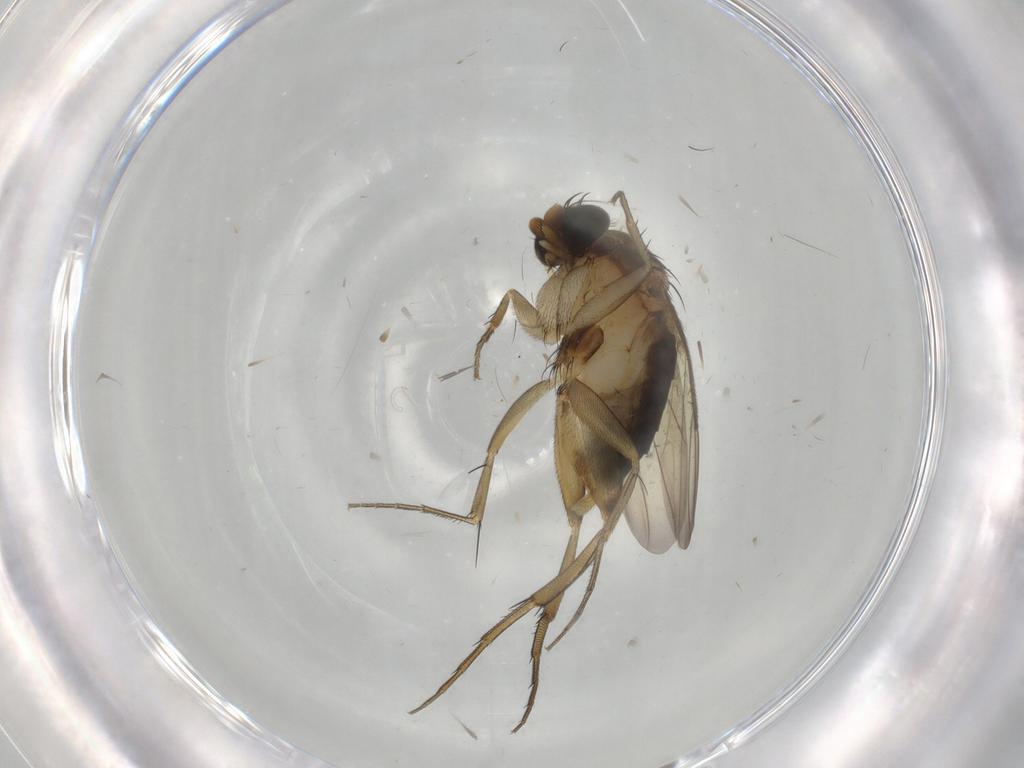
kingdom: Animalia
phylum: Arthropoda
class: Insecta
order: Diptera
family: Phoridae
